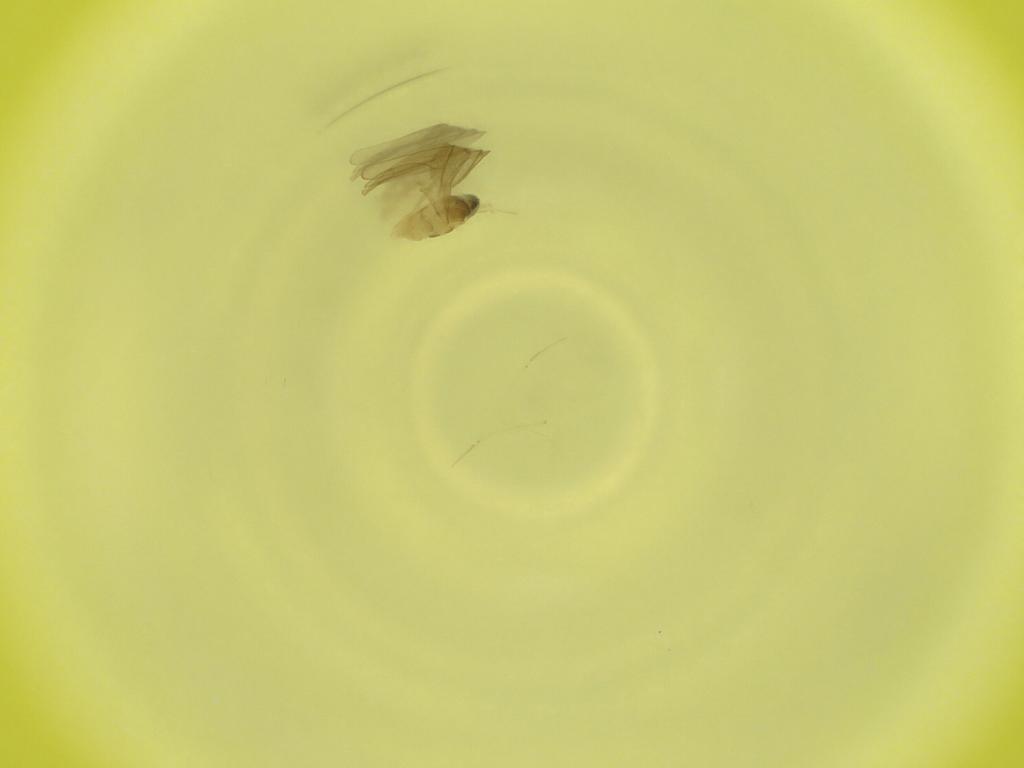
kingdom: Animalia
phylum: Arthropoda
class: Insecta
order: Diptera
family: Cecidomyiidae
